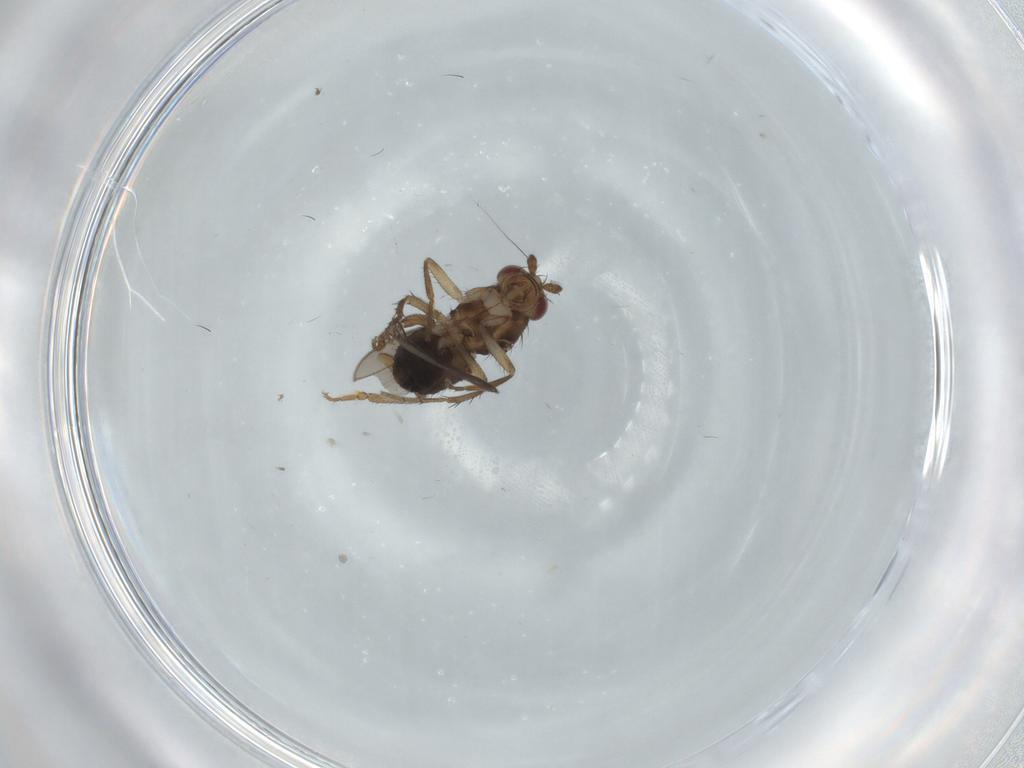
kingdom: Animalia
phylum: Arthropoda
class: Insecta
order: Diptera
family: Sphaeroceridae
